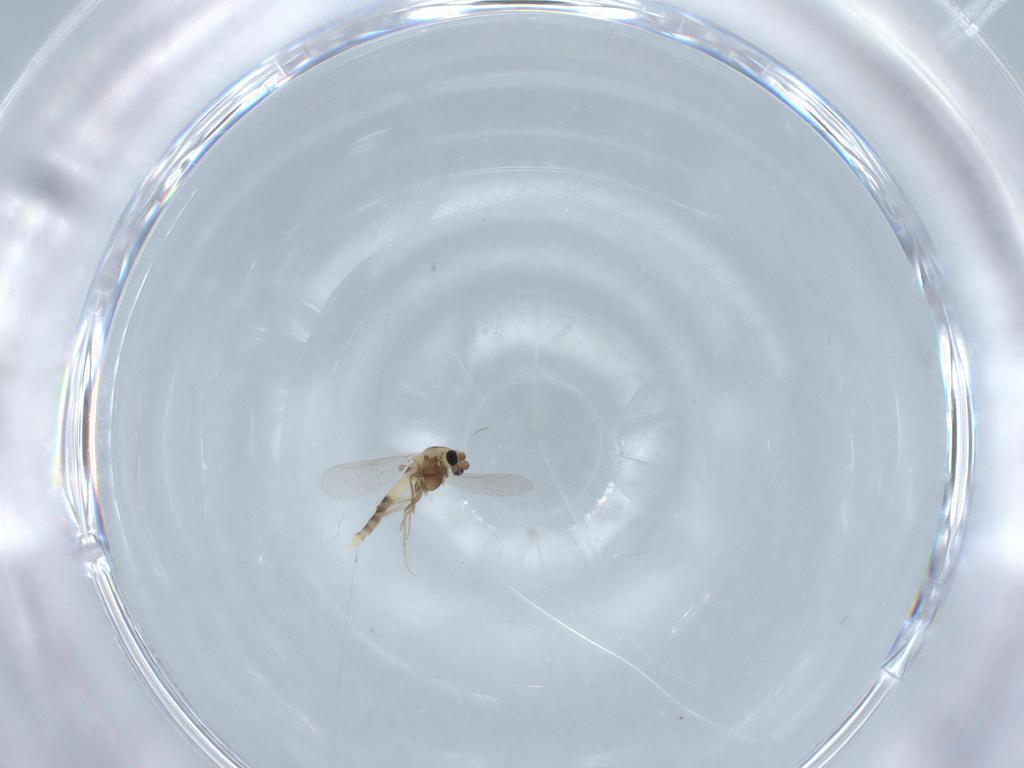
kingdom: Animalia
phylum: Arthropoda
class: Insecta
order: Diptera
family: Chironomidae
